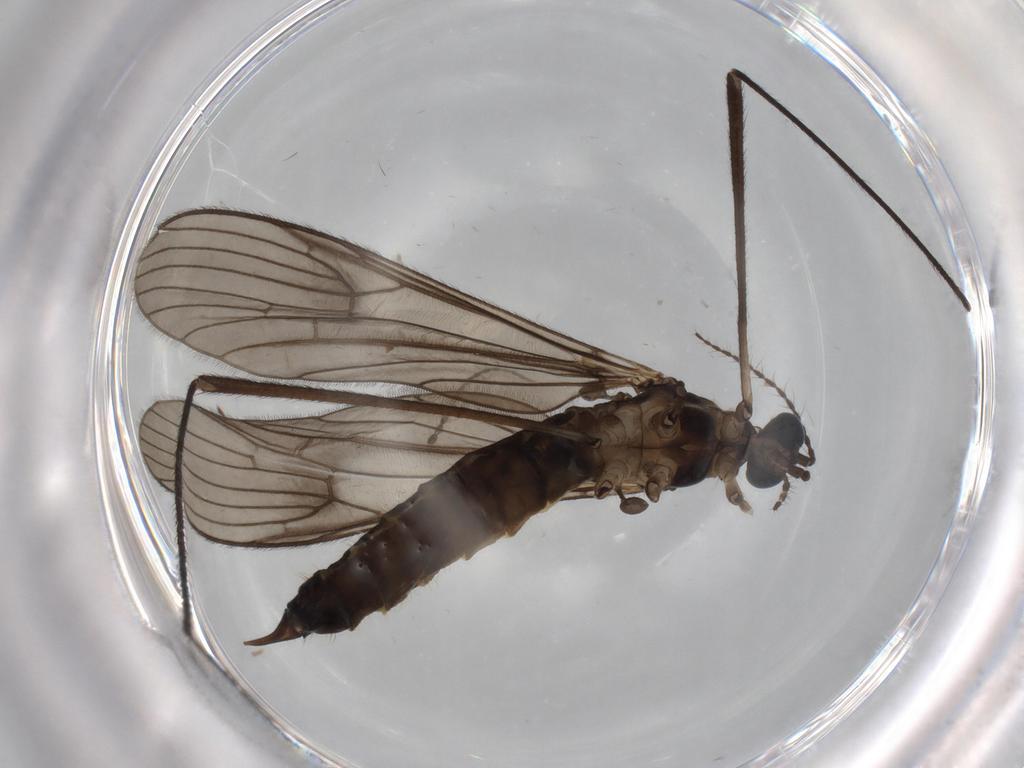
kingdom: Animalia
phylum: Arthropoda
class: Insecta
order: Diptera
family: Limoniidae
